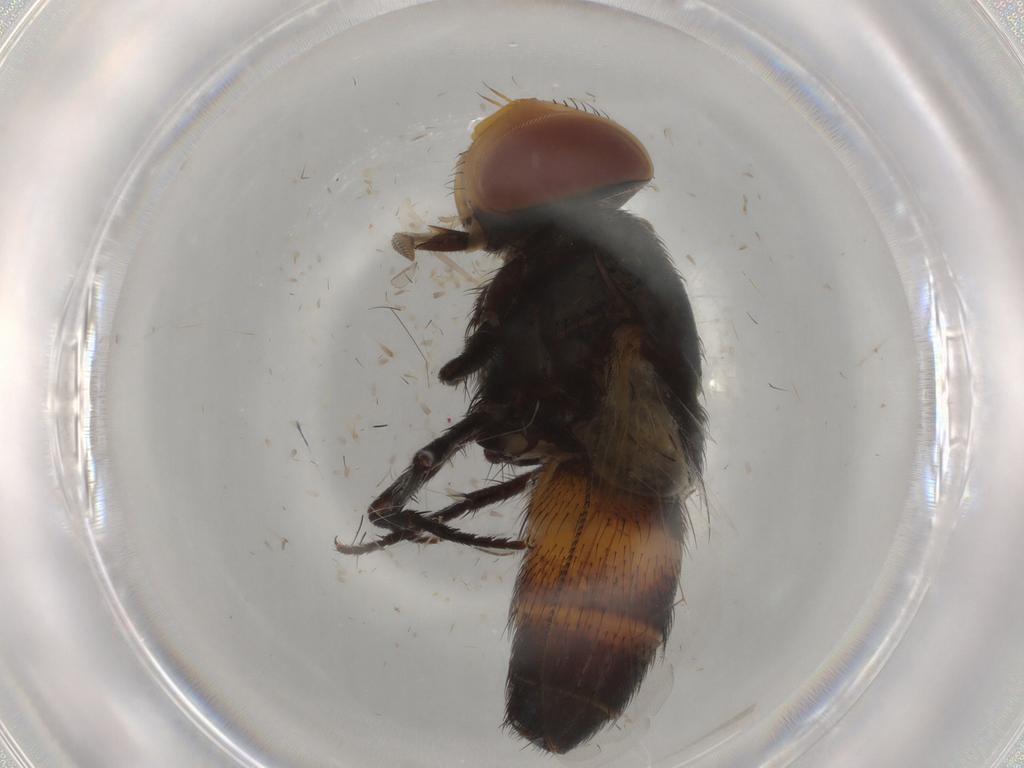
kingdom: Animalia
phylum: Arthropoda
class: Insecta
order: Diptera
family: Sarcophagidae
